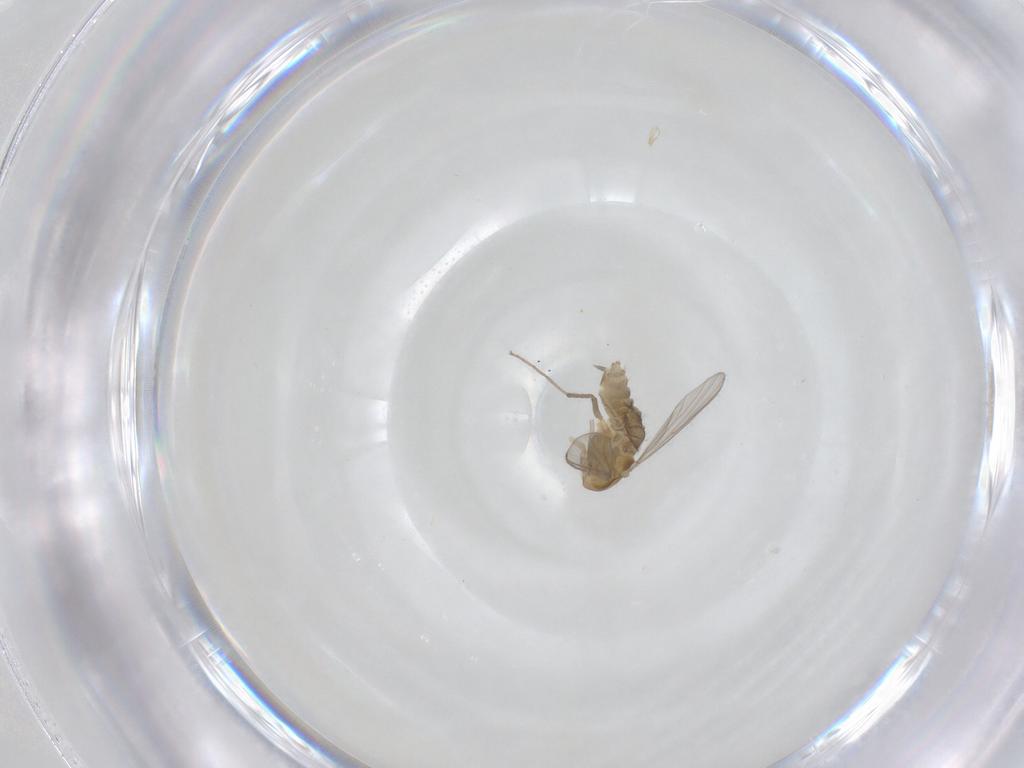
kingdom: Animalia
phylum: Arthropoda
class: Insecta
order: Diptera
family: Chironomidae
